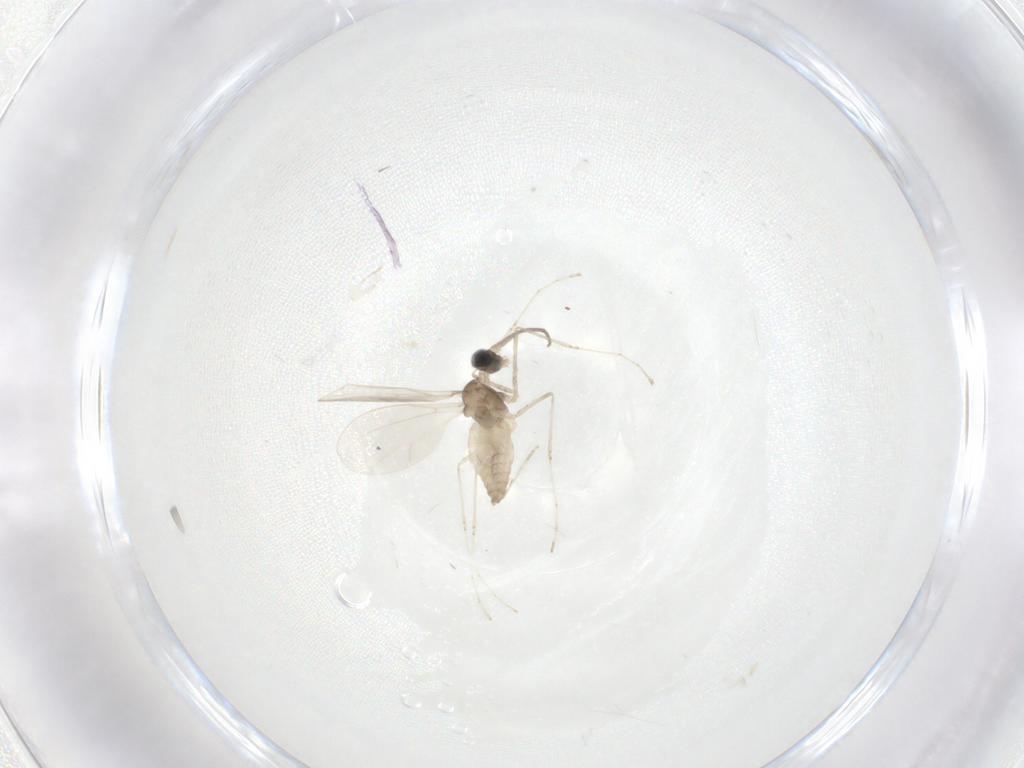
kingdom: Animalia
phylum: Arthropoda
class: Insecta
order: Diptera
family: Cecidomyiidae
